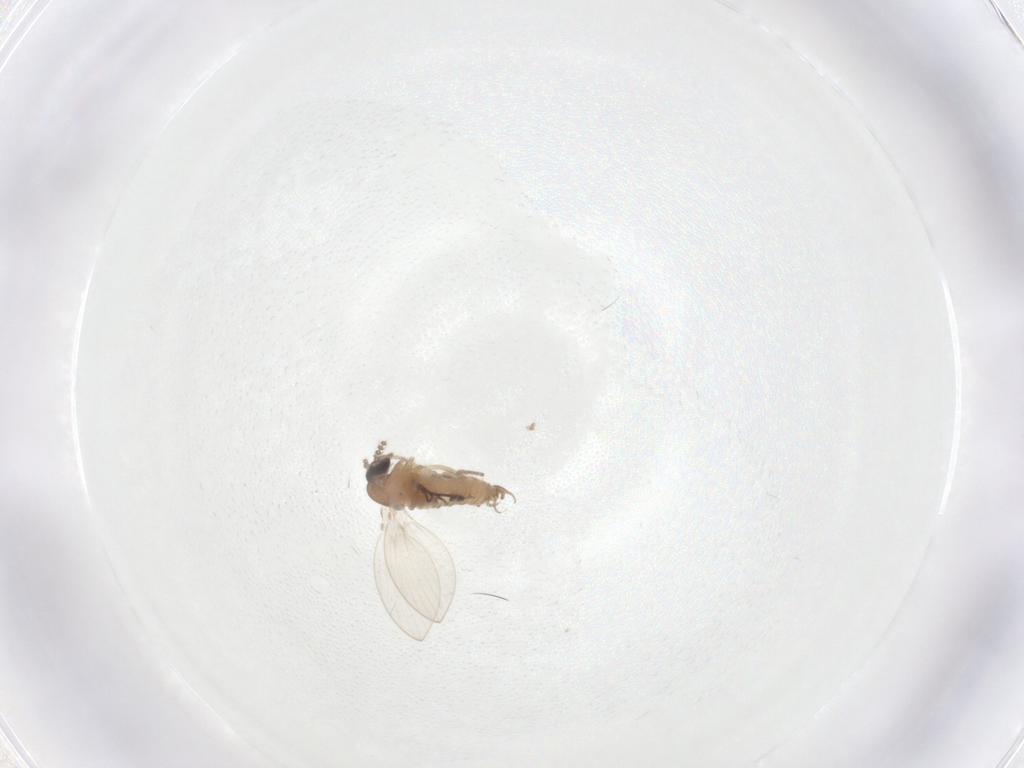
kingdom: Animalia
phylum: Arthropoda
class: Insecta
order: Diptera
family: Psychodidae
